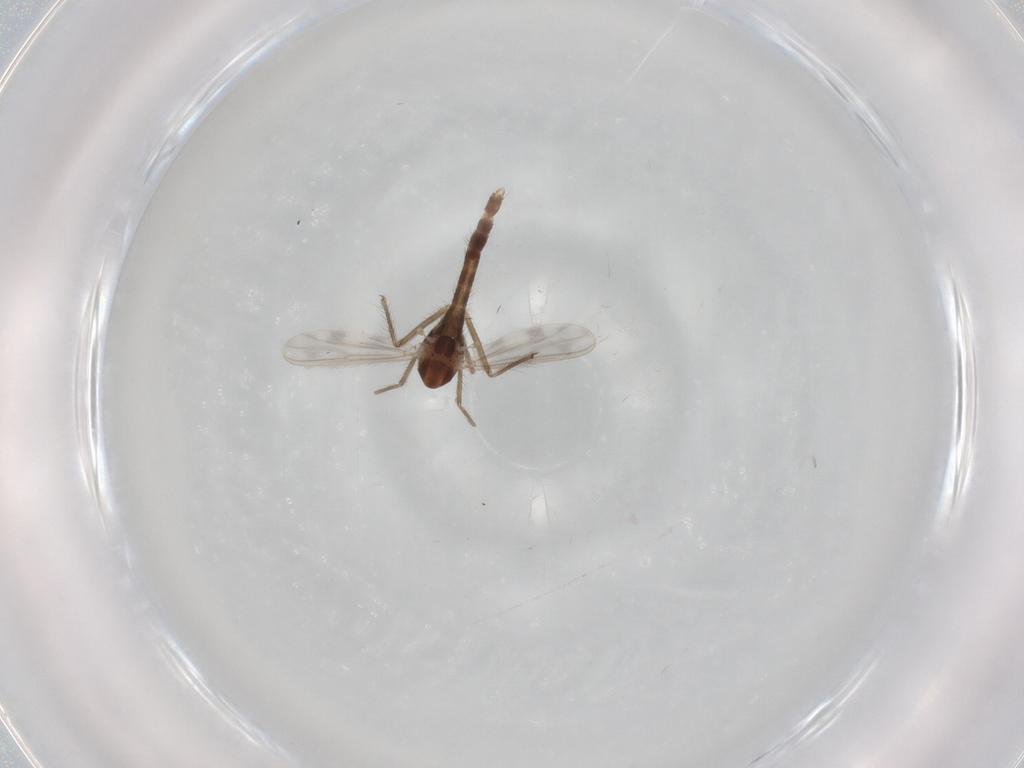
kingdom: Animalia
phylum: Arthropoda
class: Insecta
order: Diptera
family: Chironomidae
